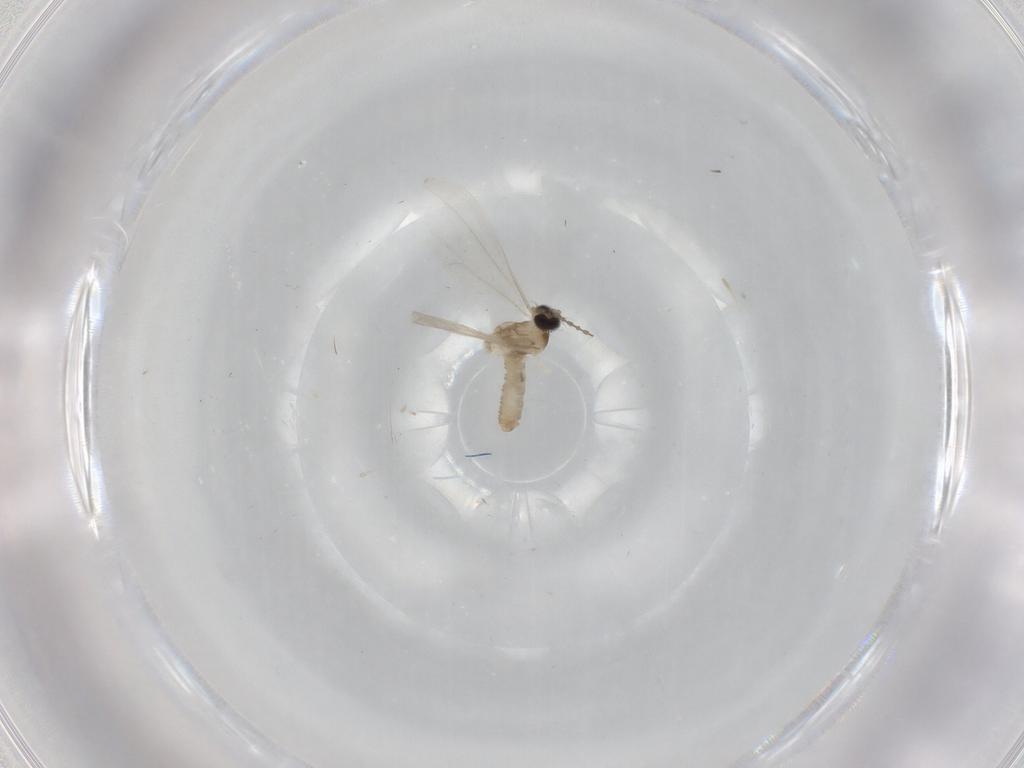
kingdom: Animalia
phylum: Arthropoda
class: Insecta
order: Diptera
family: Cecidomyiidae
